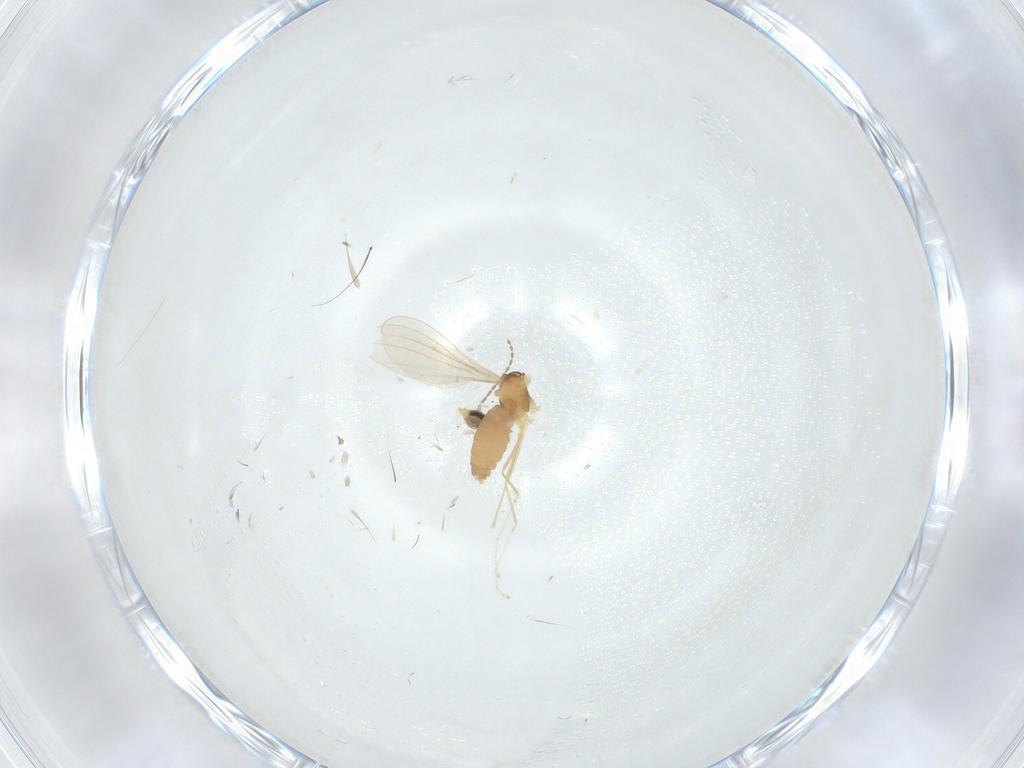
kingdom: Animalia
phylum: Arthropoda
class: Insecta
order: Diptera
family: Cecidomyiidae
